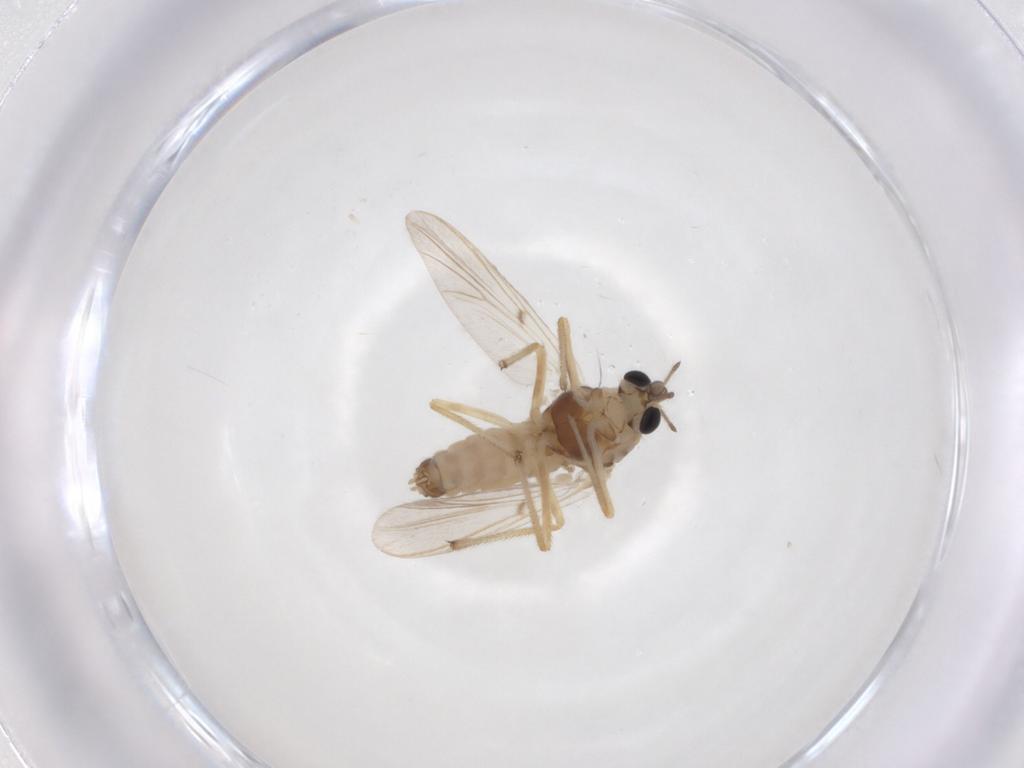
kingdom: Animalia
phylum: Arthropoda
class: Insecta
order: Diptera
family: Chironomidae
